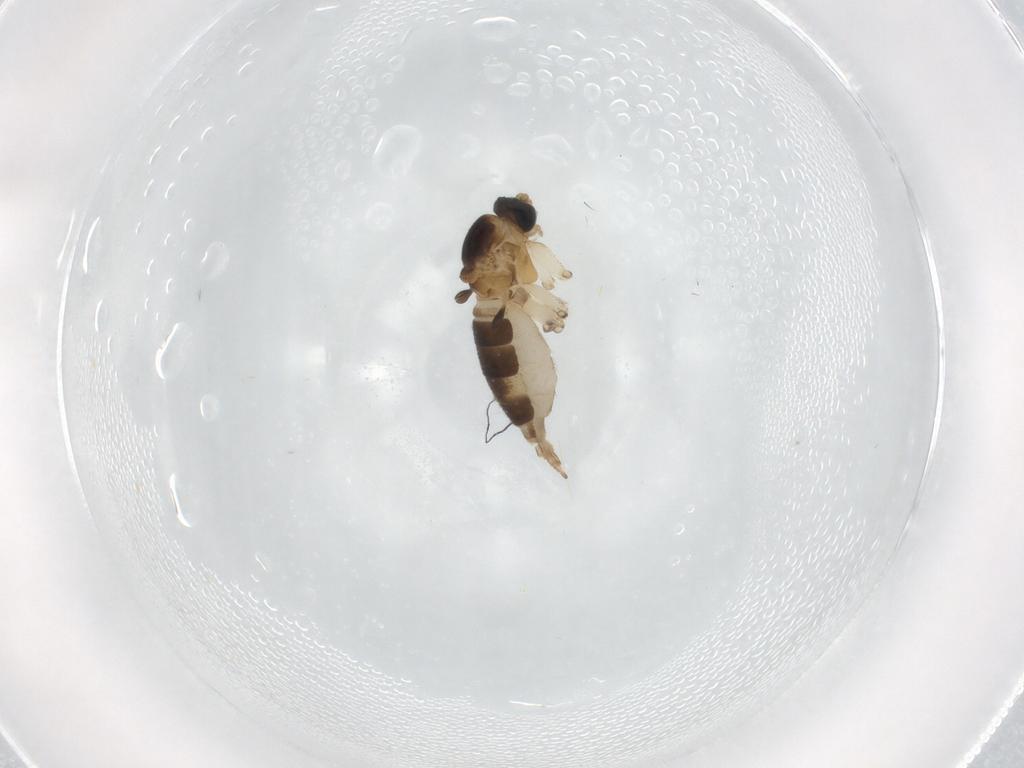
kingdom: Animalia
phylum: Arthropoda
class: Insecta
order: Diptera
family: Sciaridae
